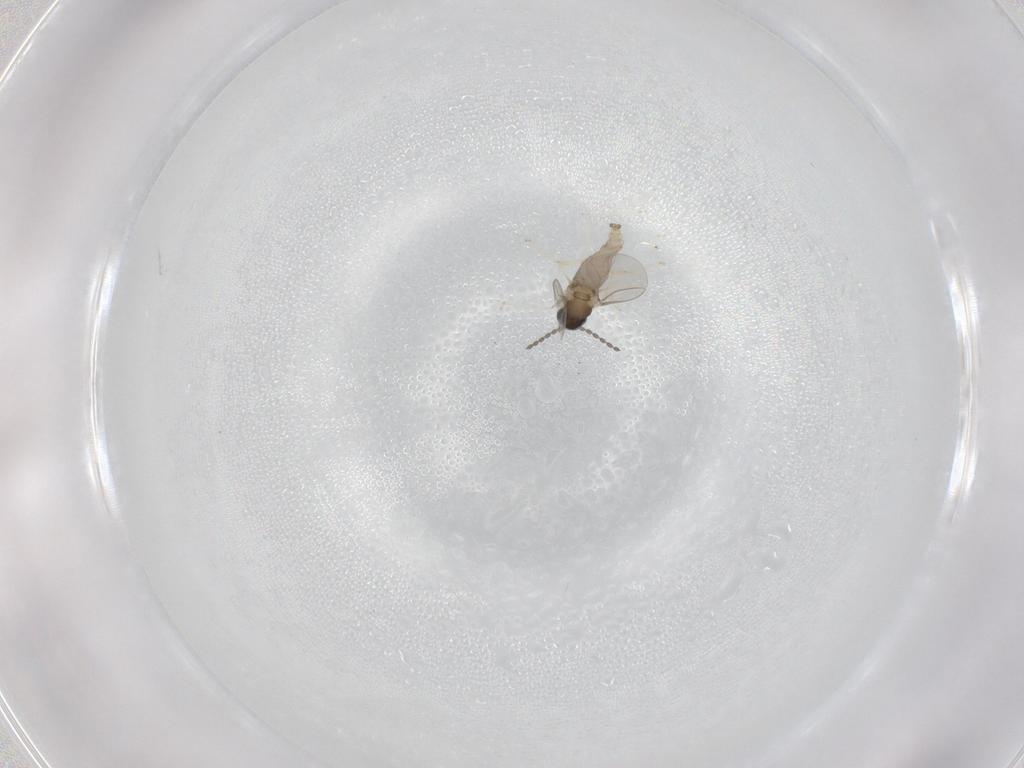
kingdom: Animalia
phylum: Arthropoda
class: Insecta
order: Diptera
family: Cecidomyiidae
